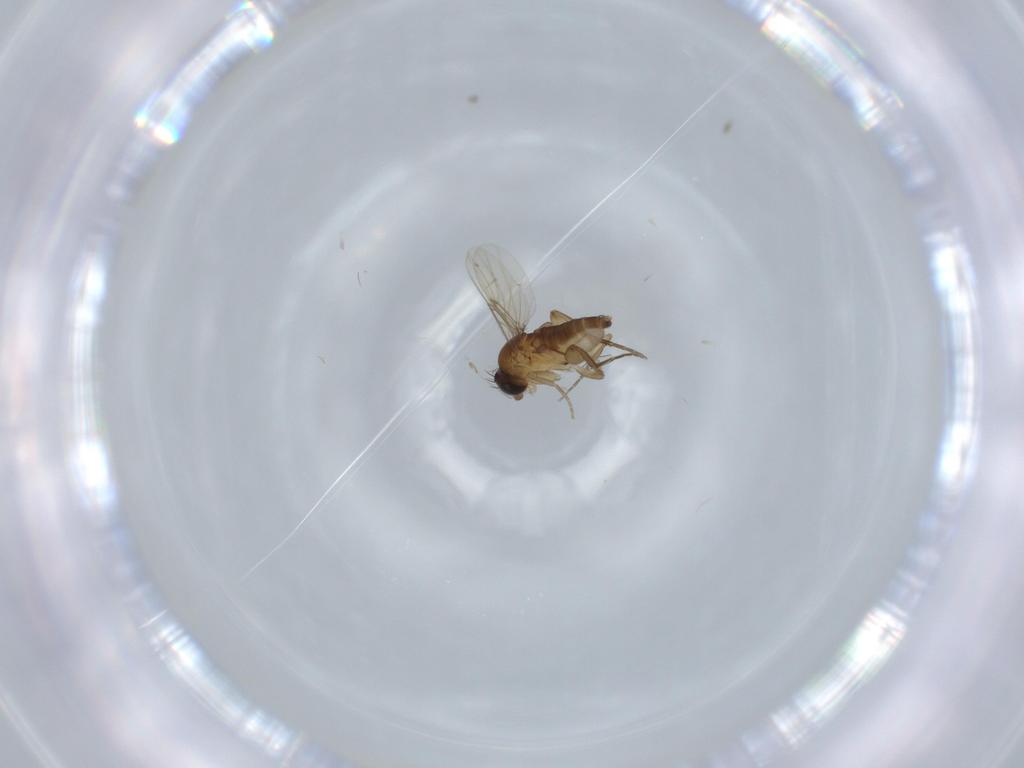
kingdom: Animalia
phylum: Arthropoda
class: Insecta
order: Diptera
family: Phoridae
